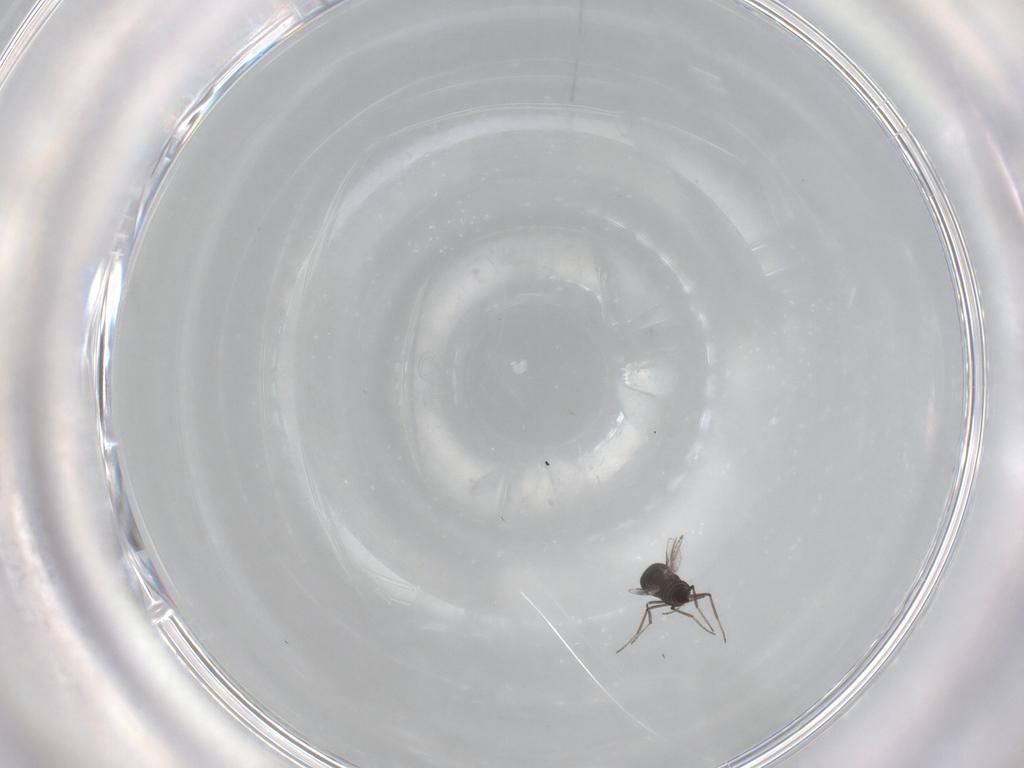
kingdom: Animalia
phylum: Arthropoda
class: Insecta
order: Diptera
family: Ceratopogonidae
